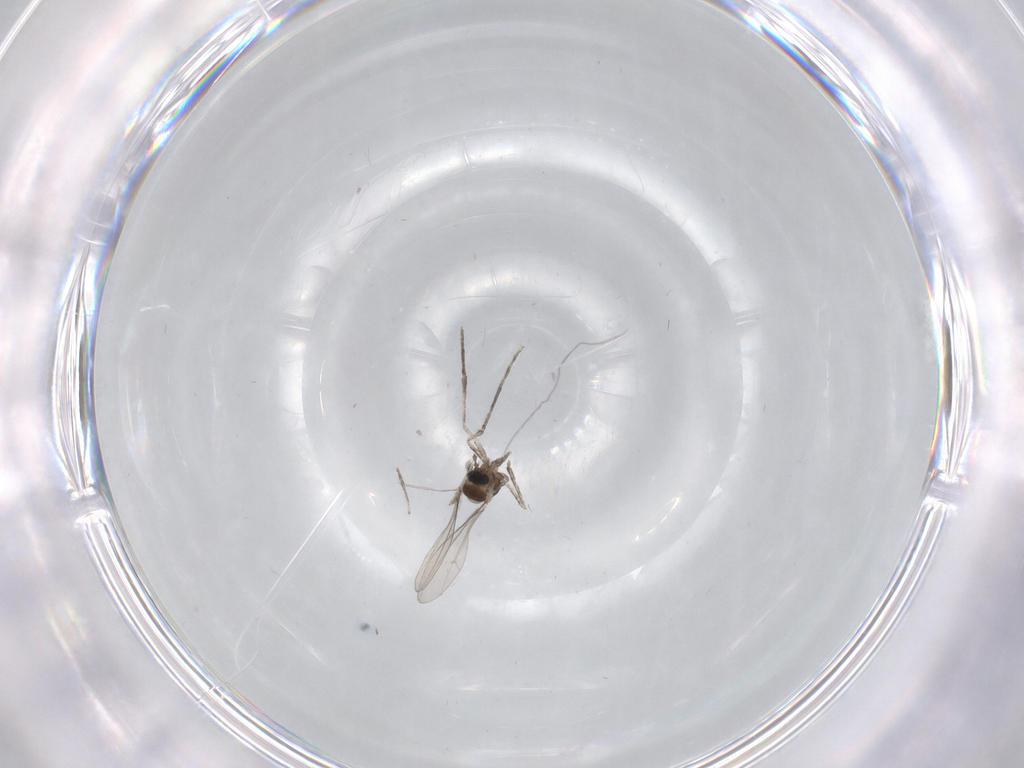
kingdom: Animalia
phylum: Arthropoda
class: Insecta
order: Diptera
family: Cecidomyiidae
